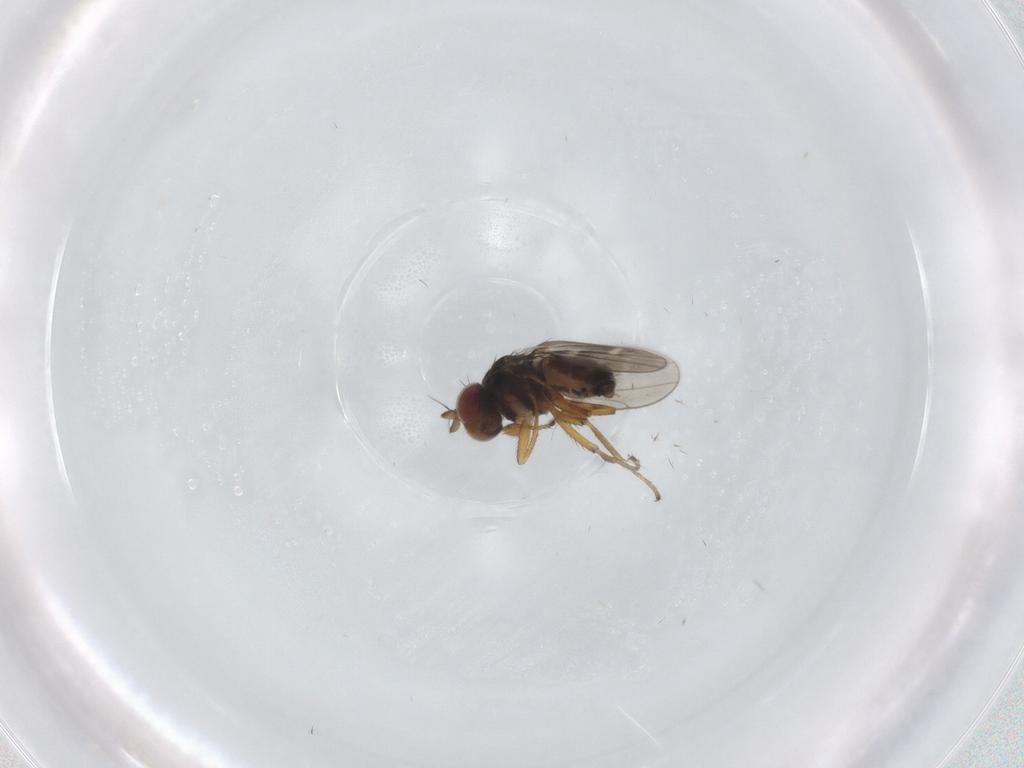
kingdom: Animalia
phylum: Arthropoda
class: Insecta
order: Diptera
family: Ephydridae
